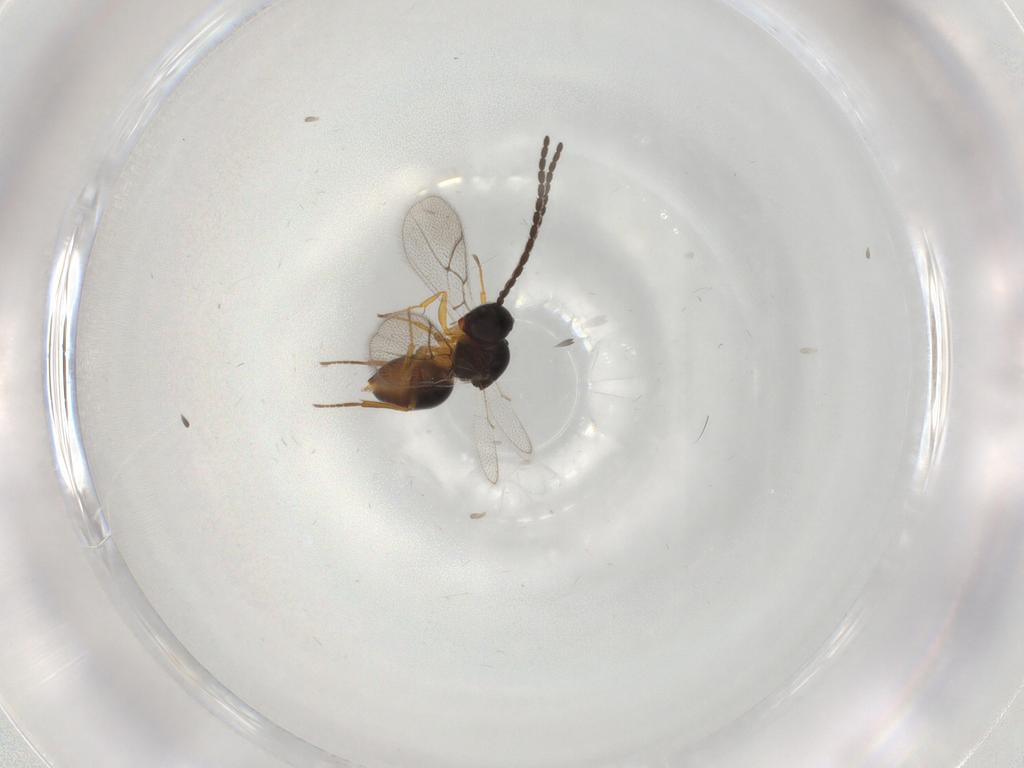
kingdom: Animalia
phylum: Arthropoda
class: Insecta
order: Hymenoptera
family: Figitidae
